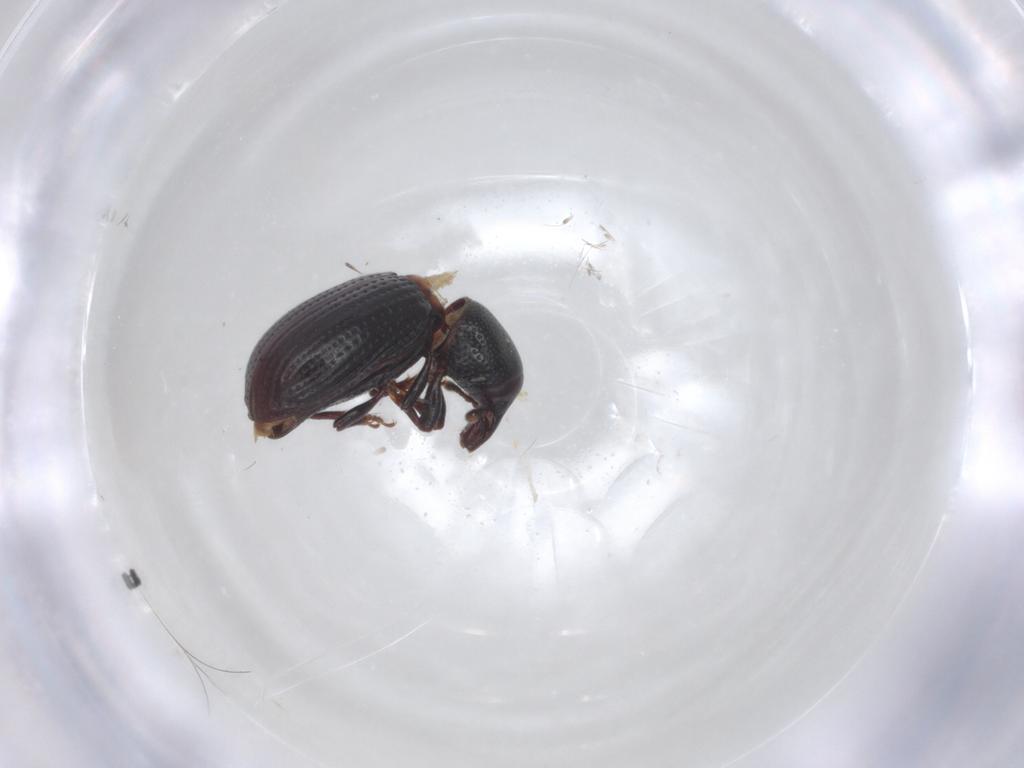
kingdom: Animalia
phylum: Arthropoda
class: Insecta
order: Coleoptera
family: Curculionidae
